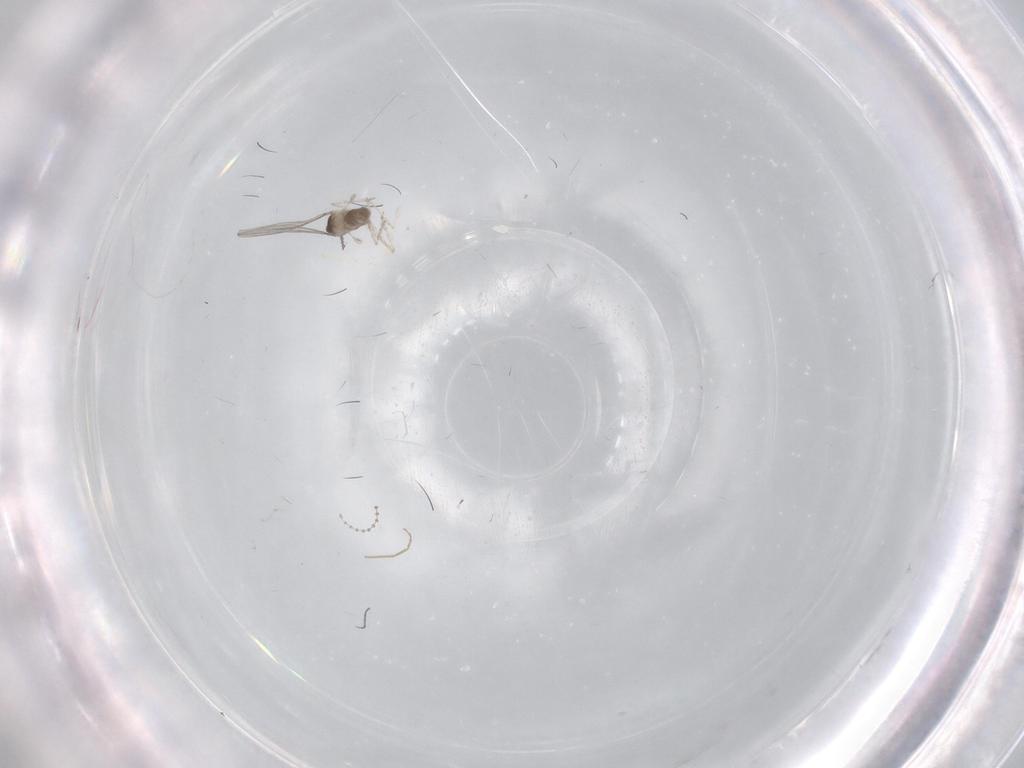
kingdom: Animalia
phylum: Arthropoda
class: Insecta
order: Diptera
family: Chironomidae
